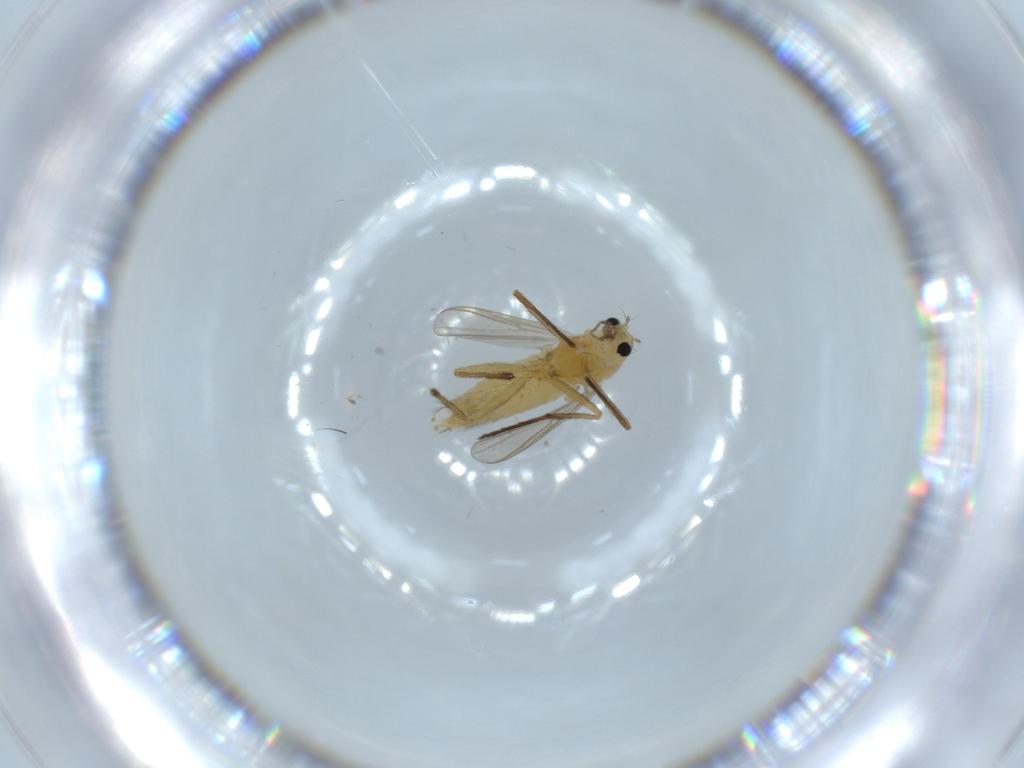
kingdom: Animalia
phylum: Arthropoda
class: Insecta
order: Diptera
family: Chironomidae
